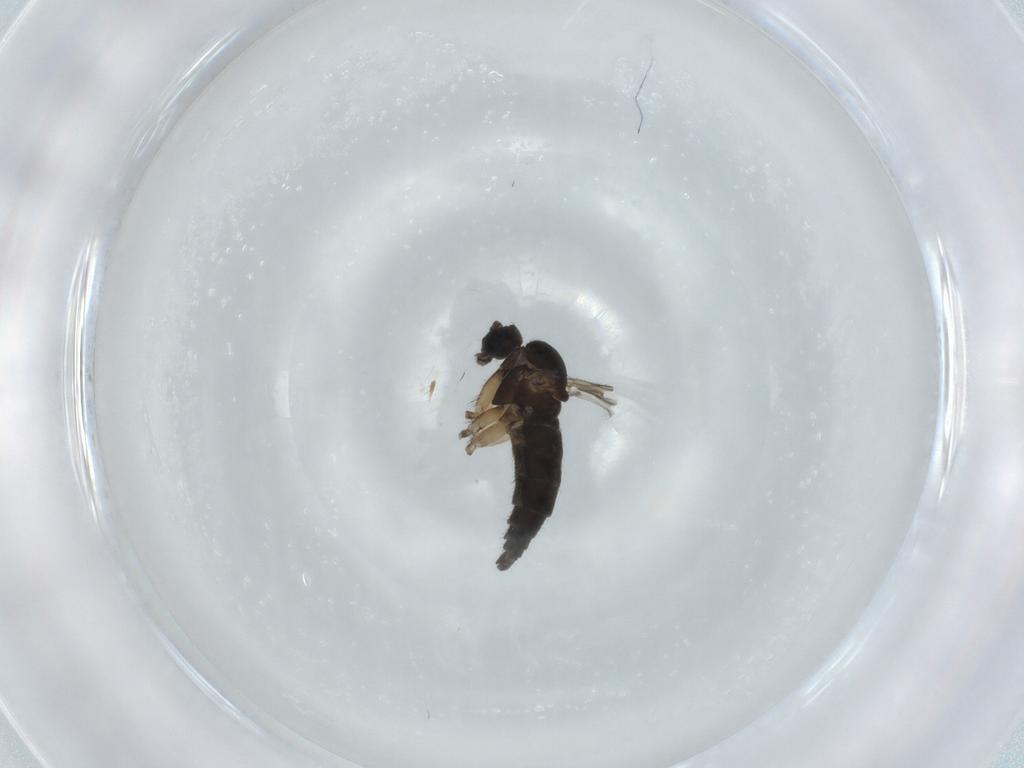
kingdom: Animalia
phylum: Arthropoda
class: Insecta
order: Diptera
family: Sciaridae
